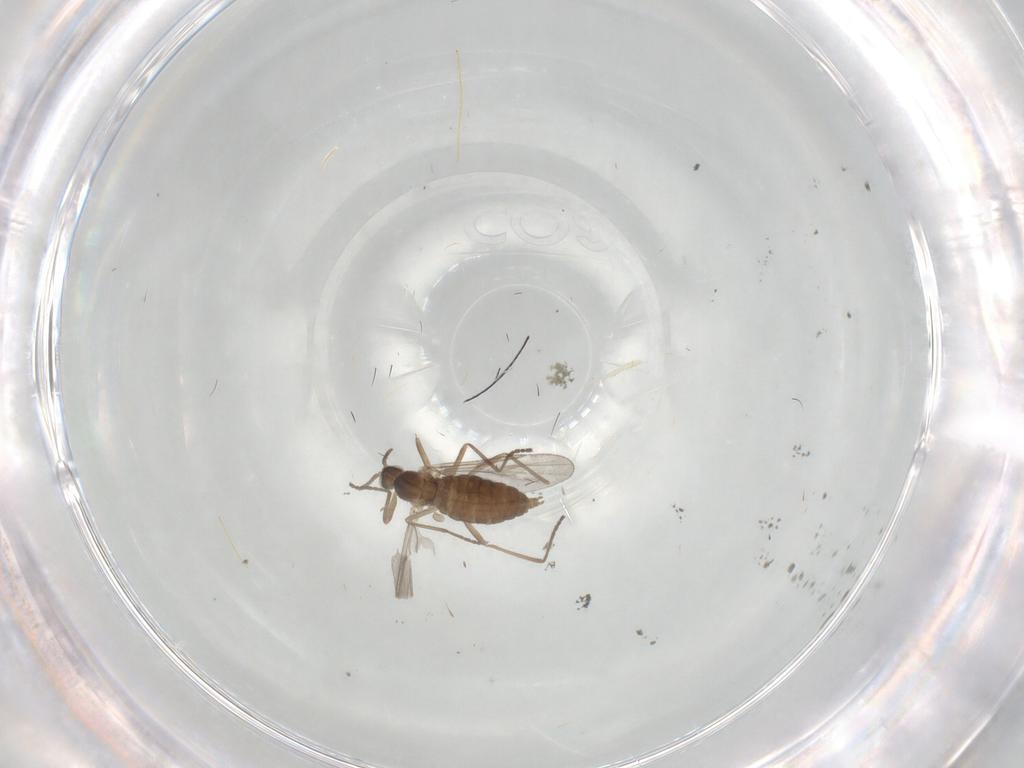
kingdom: Animalia
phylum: Arthropoda
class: Insecta
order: Diptera
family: Cecidomyiidae
